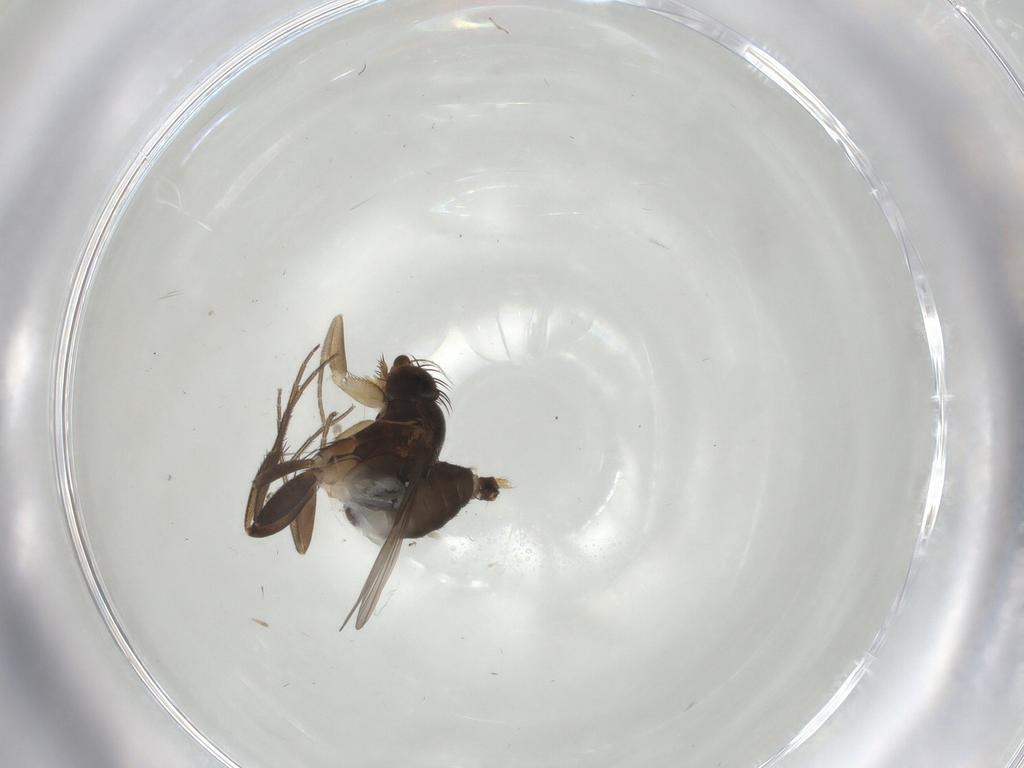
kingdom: Animalia
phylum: Arthropoda
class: Insecta
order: Diptera
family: Phoridae
